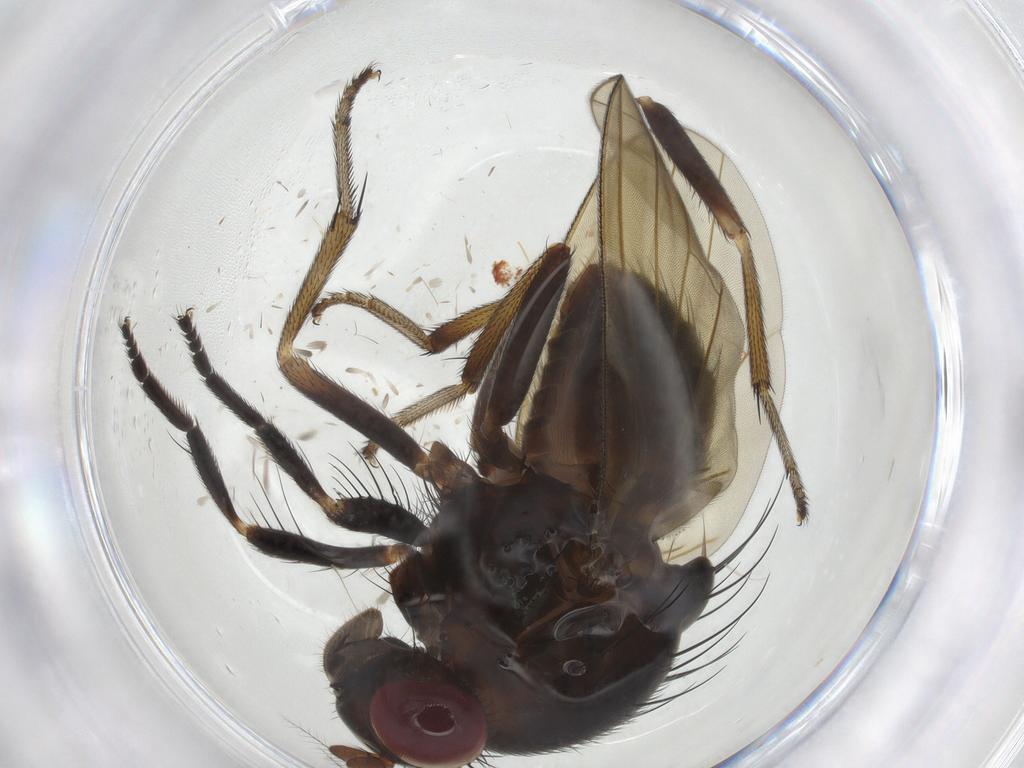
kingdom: Animalia
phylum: Arthropoda
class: Insecta
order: Diptera
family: Lauxaniidae
